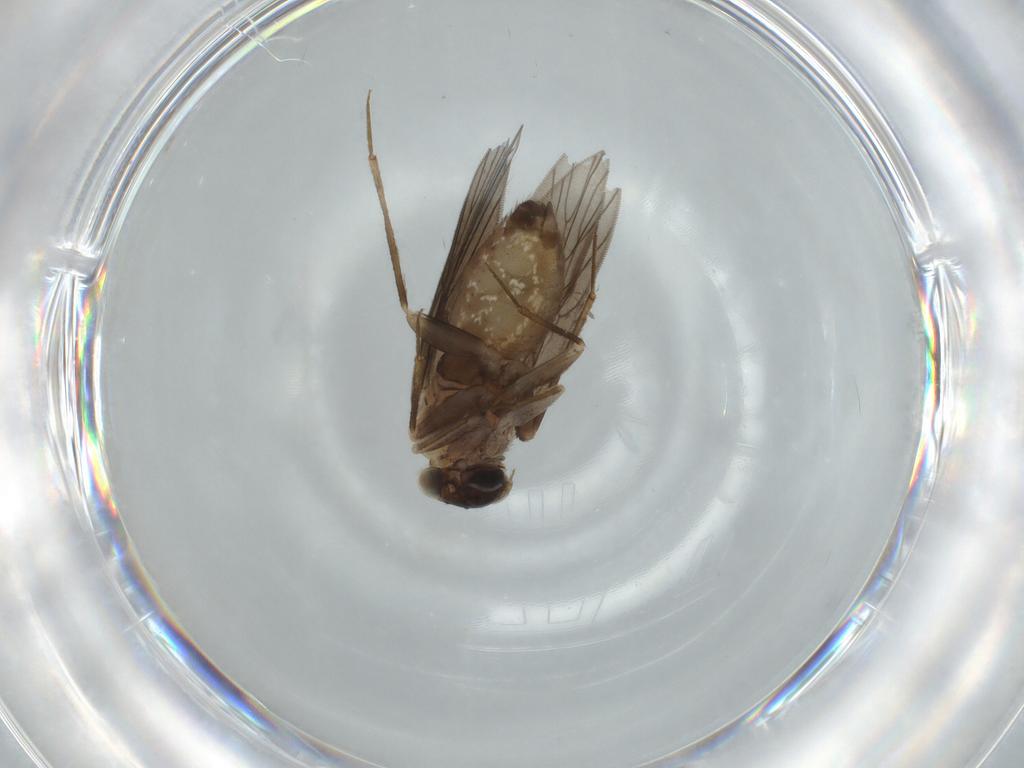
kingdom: Animalia
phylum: Arthropoda
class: Insecta
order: Psocodea
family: Lepidopsocidae
